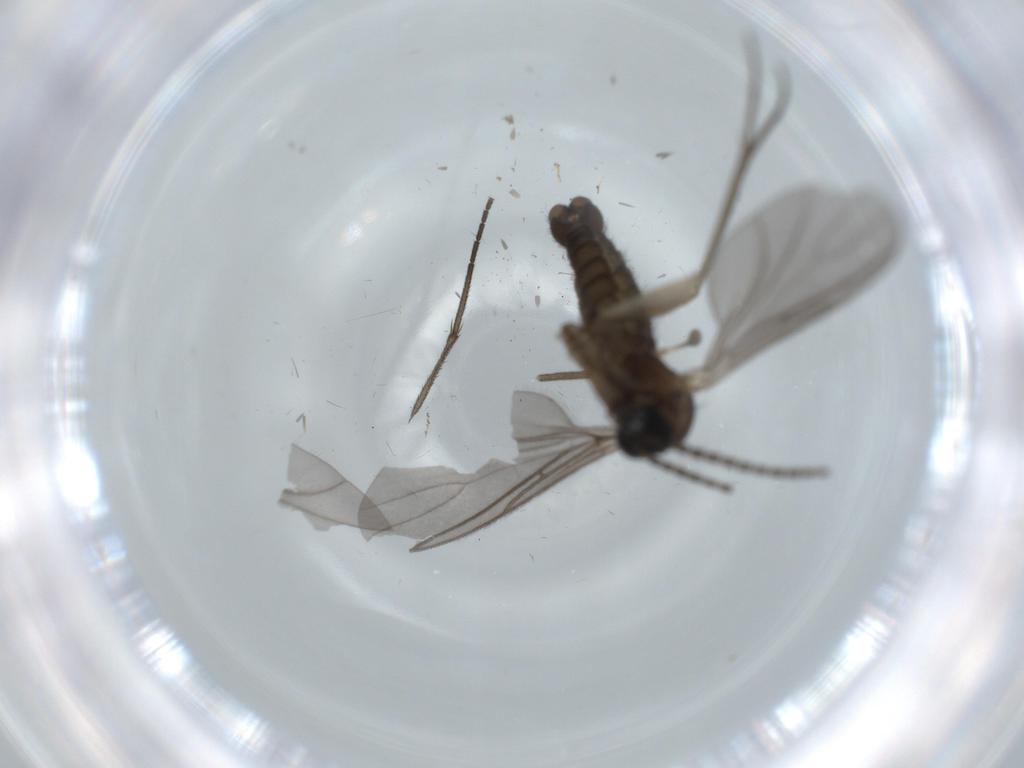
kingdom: Animalia
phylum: Arthropoda
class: Insecta
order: Diptera
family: Sciaridae
